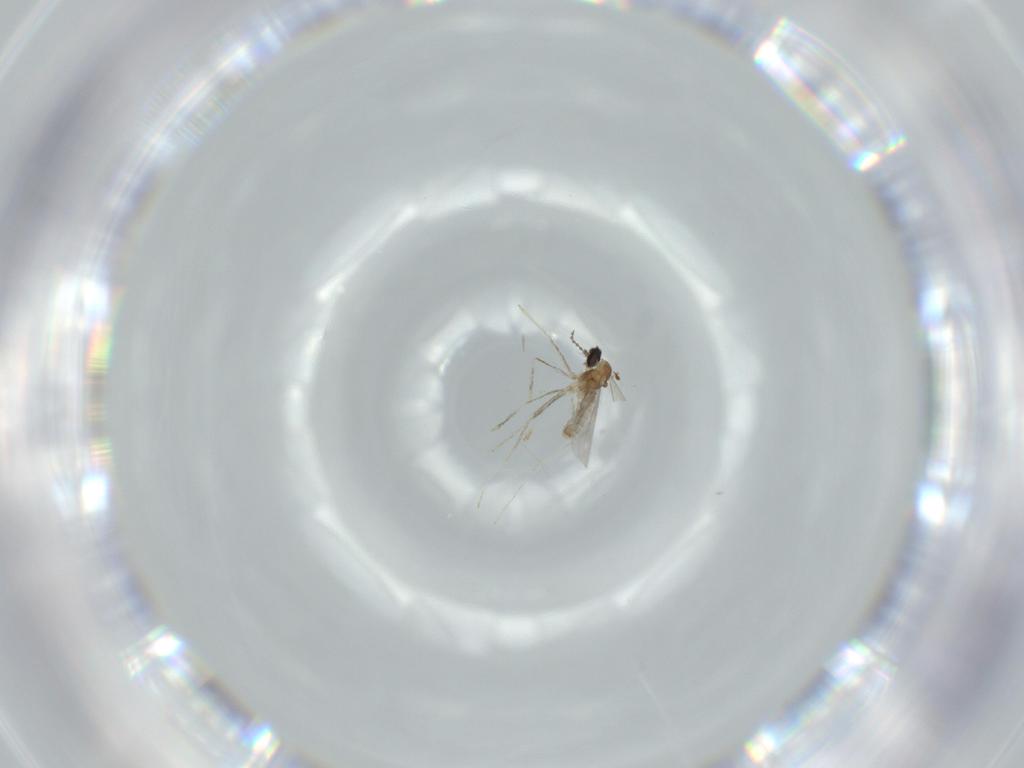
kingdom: Animalia
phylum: Arthropoda
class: Insecta
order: Diptera
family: Cecidomyiidae
